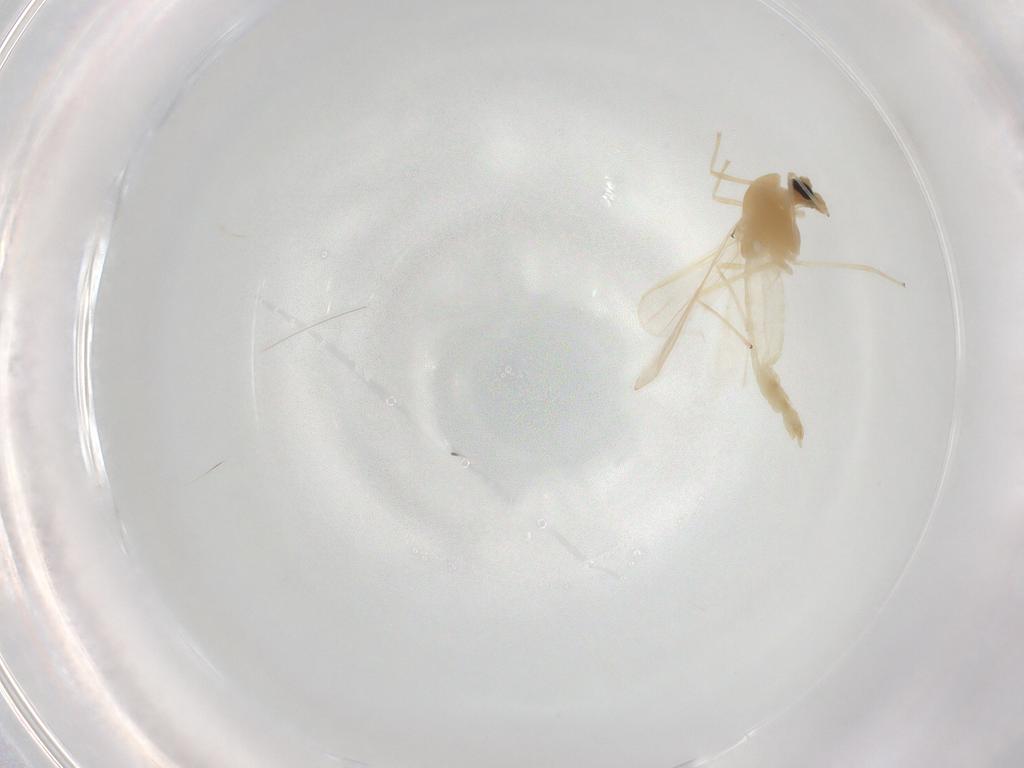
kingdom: Animalia
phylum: Arthropoda
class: Insecta
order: Diptera
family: Chironomidae
